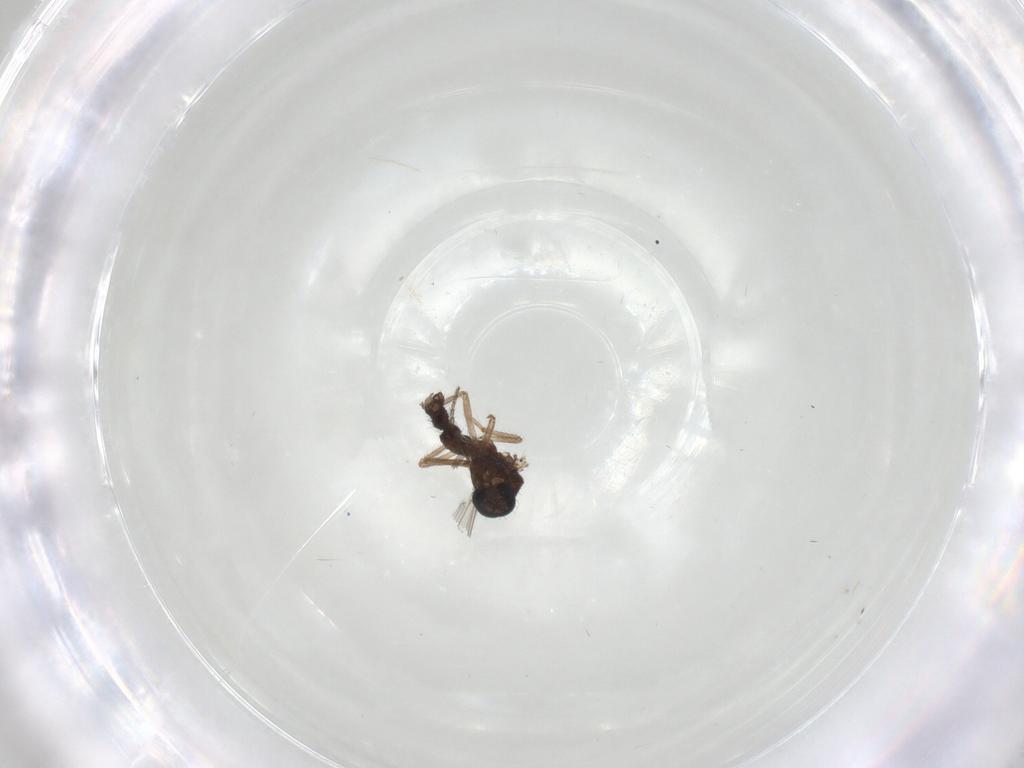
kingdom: Animalia
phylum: Arthropoda
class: Insecta
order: Diptera
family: Ceratopogonidae
